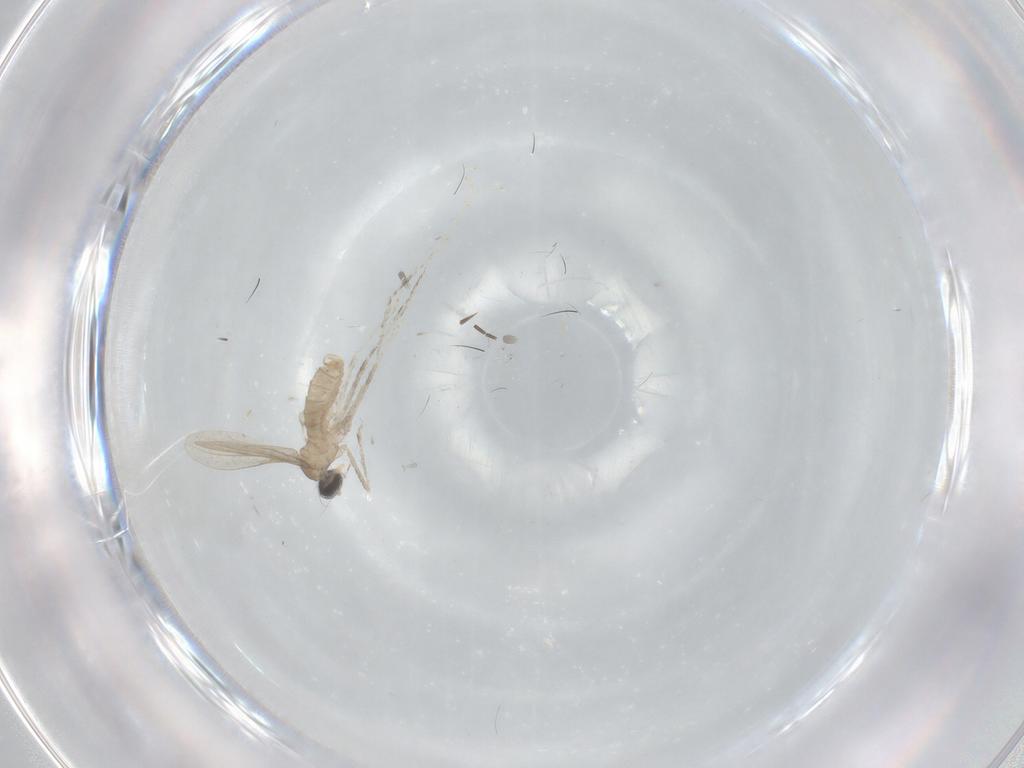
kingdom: Animalia
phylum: Arthropoda
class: Insecta
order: Diptera
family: Cecidomyiidae
